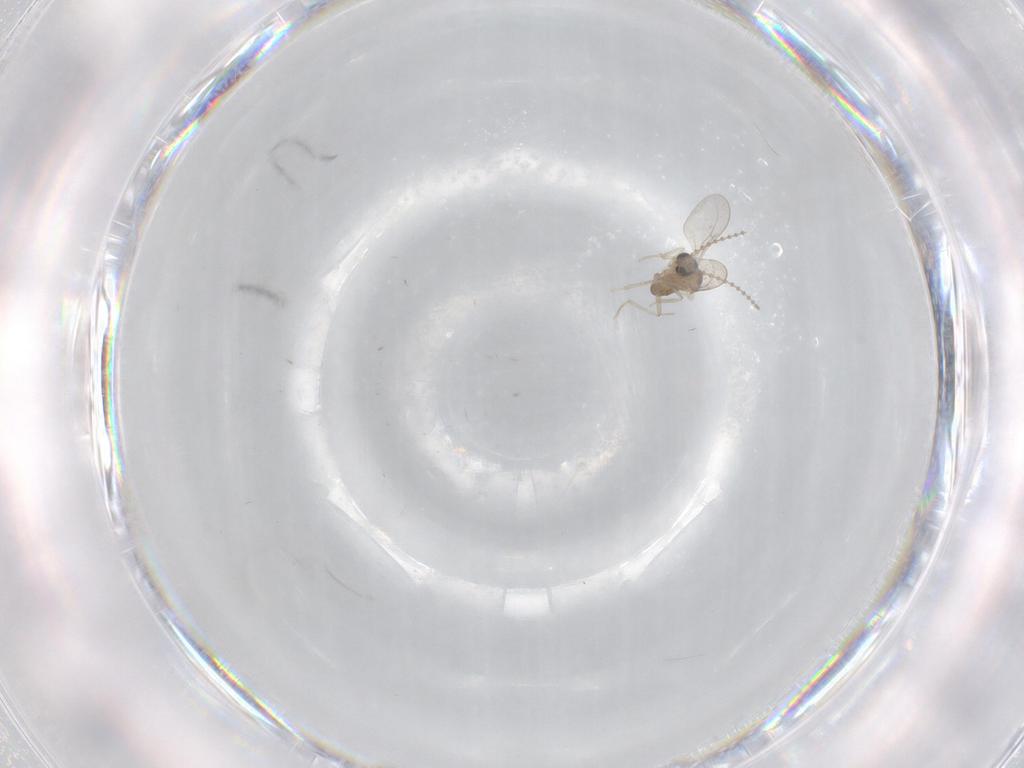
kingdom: Animalia
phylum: Arthropoda
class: Insecta
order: Diptera
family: Cecidomyiidae
